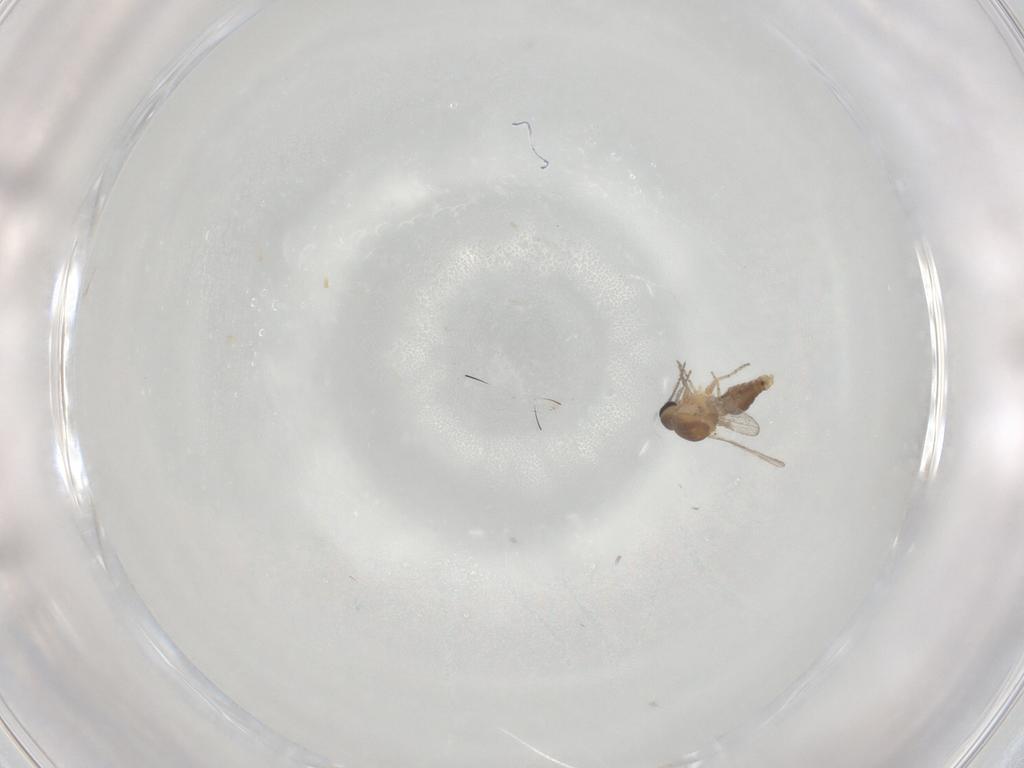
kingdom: Animalia
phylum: Arthropoda
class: Insecta
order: Diptera
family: Ceratopogonidae
